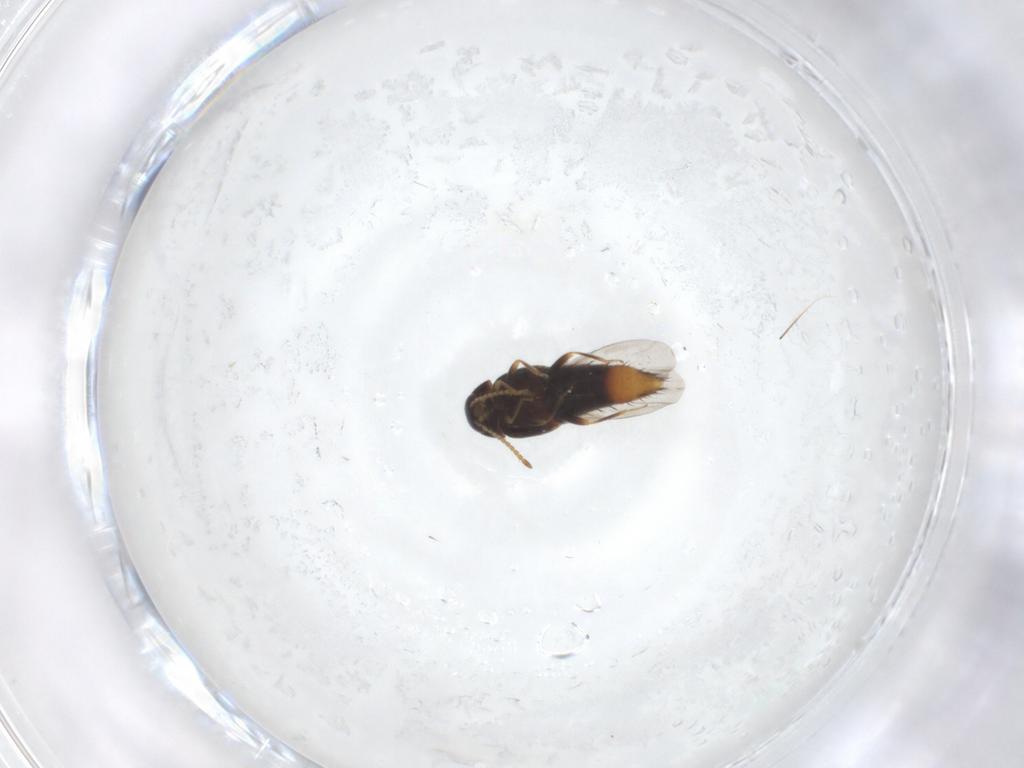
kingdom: Animalia
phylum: Arthropoda
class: Insecta
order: Coleoptera
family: Staphylinidae
